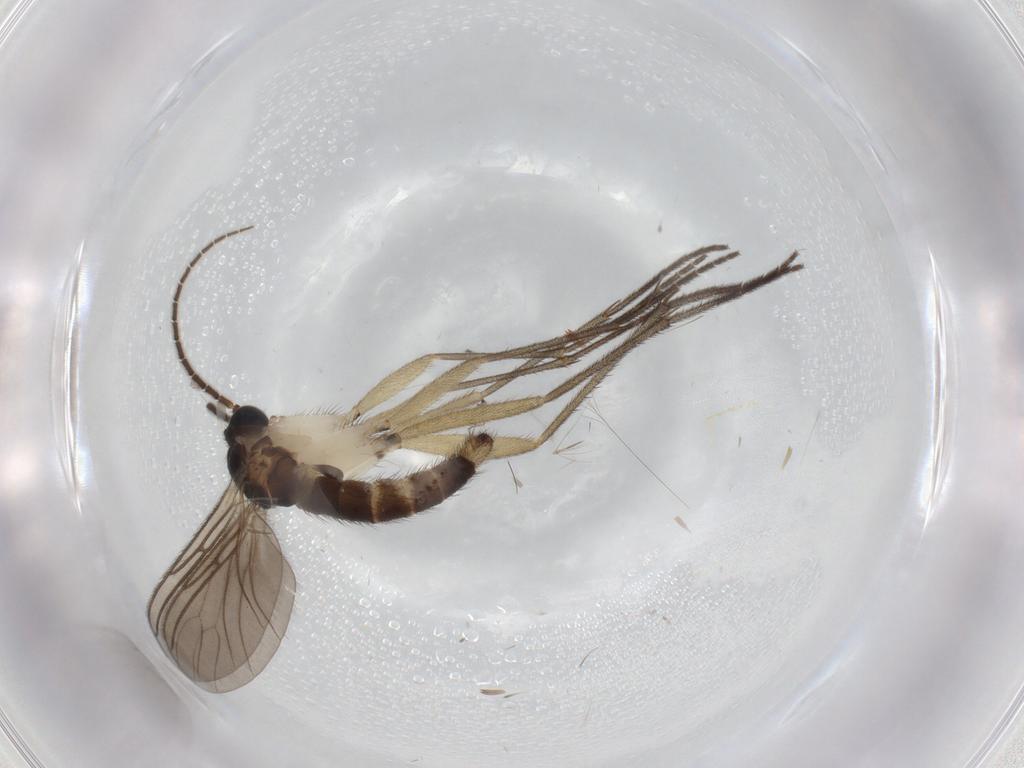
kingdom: Animalia
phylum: Arthropoda
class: Insecta
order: Diptera
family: Sciaridae
